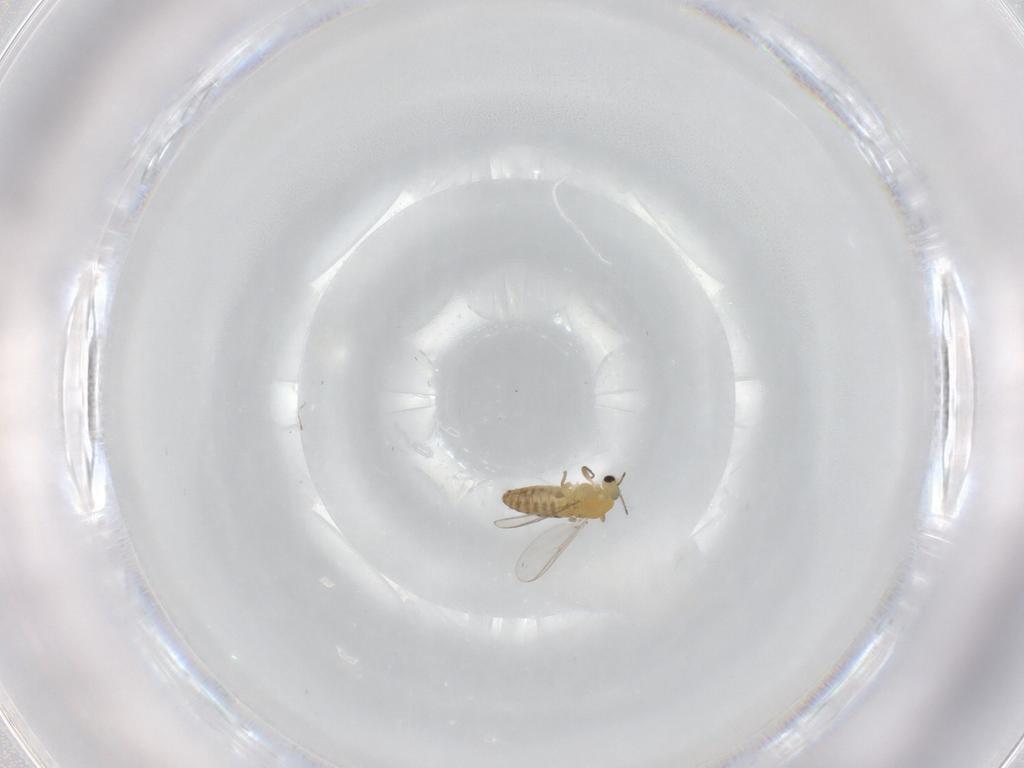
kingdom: Animalia
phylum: Arthropoda
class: Insecta
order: Diptera
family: Chironomidae
